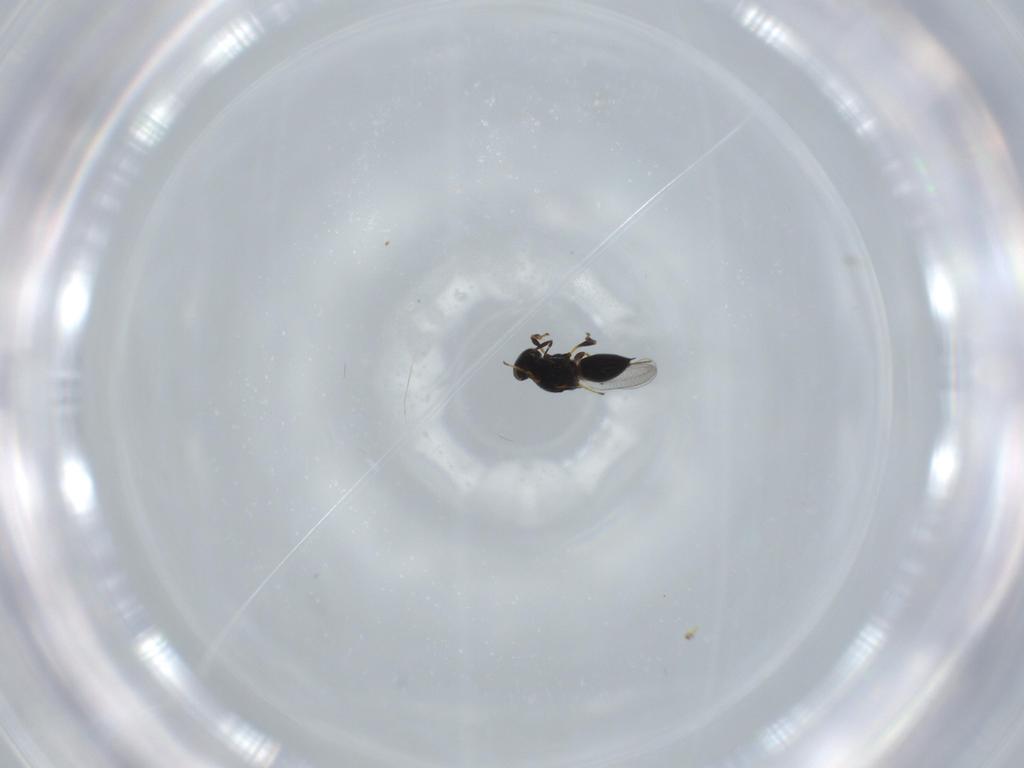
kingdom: Animalia
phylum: Arthropoda
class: Insecta
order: Hymenoptera
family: Platygastridae
